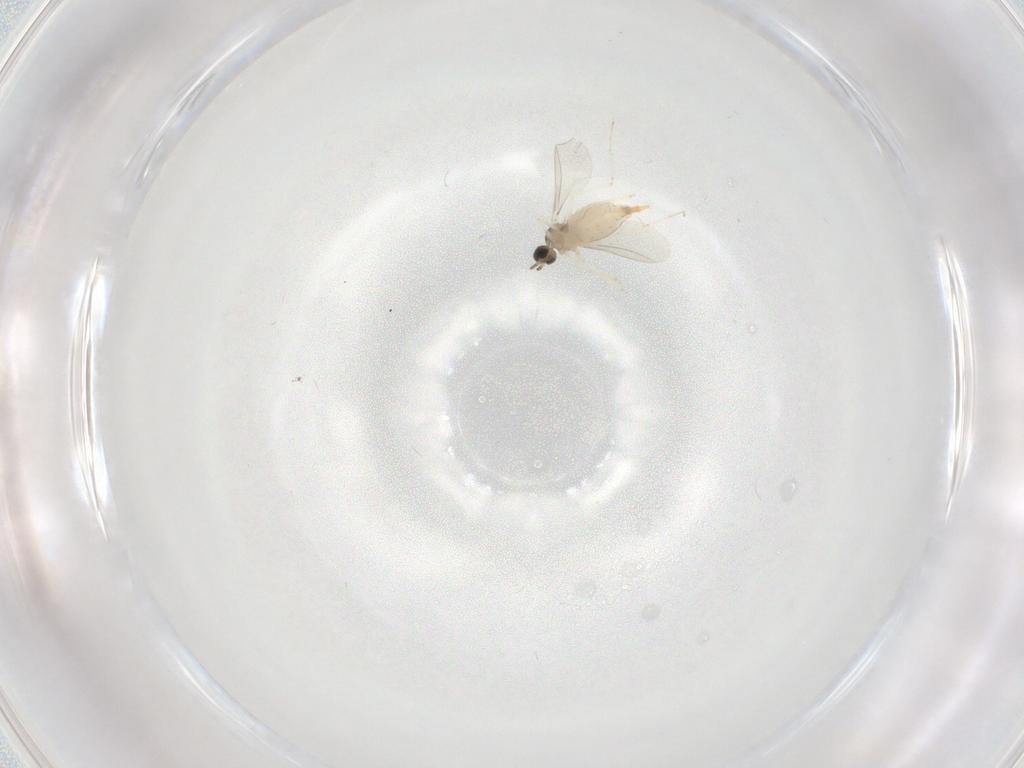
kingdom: Animalia
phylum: Arthropoda
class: Insecta
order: Diptera
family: Cecidomyiidae
